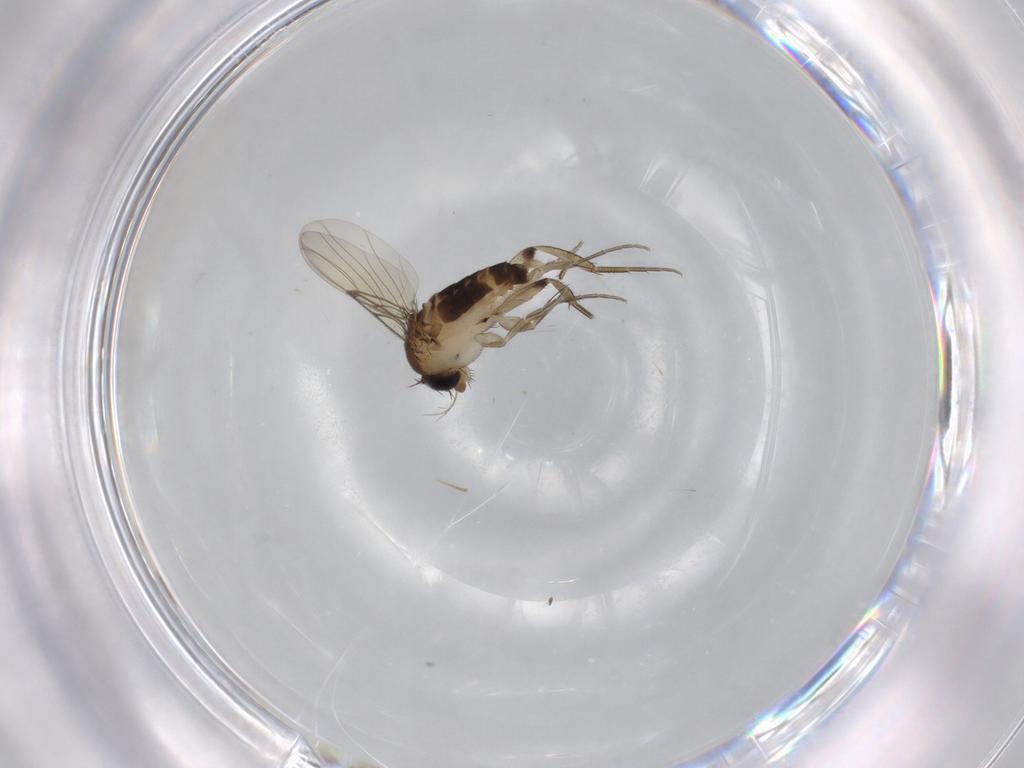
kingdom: Animalia
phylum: Arthropoda
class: Insecta
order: Diptera
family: Phoridae
